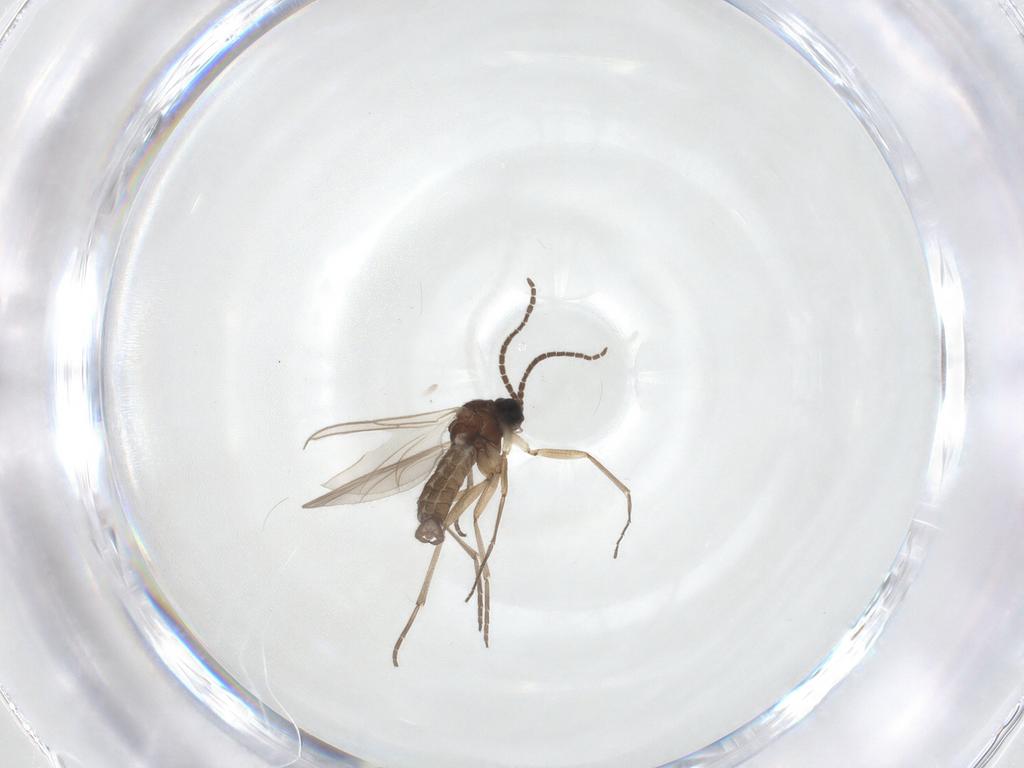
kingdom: Animalia
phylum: Arthropoda
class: Insecta
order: Diptera
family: Sciaridae
